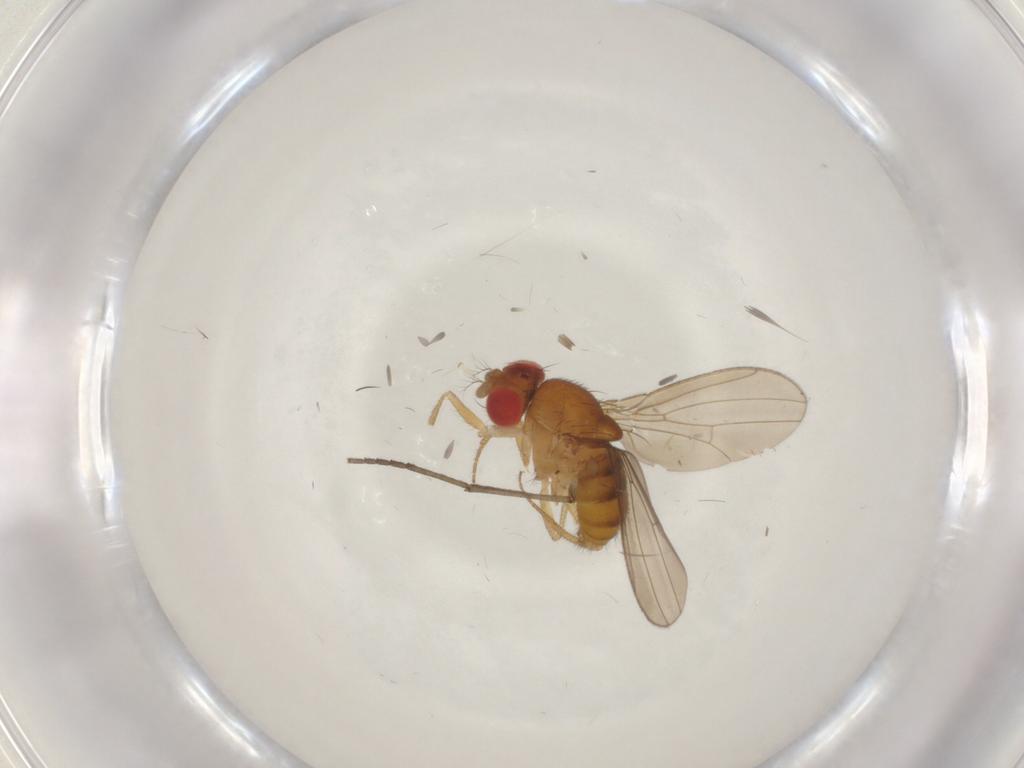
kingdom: Animalia
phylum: Arthropoda
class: Insecta
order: Diptera
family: Drosophilidae
